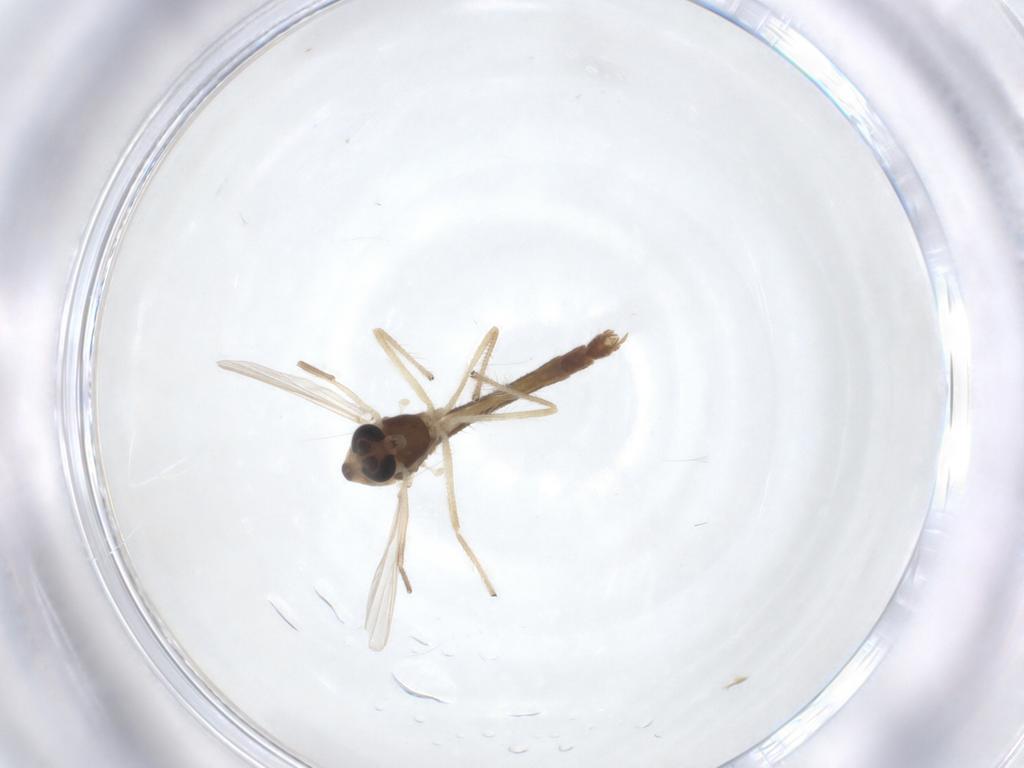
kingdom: Animalia
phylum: Arthropoda
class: Insecta
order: Diptera
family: Chironomidae
